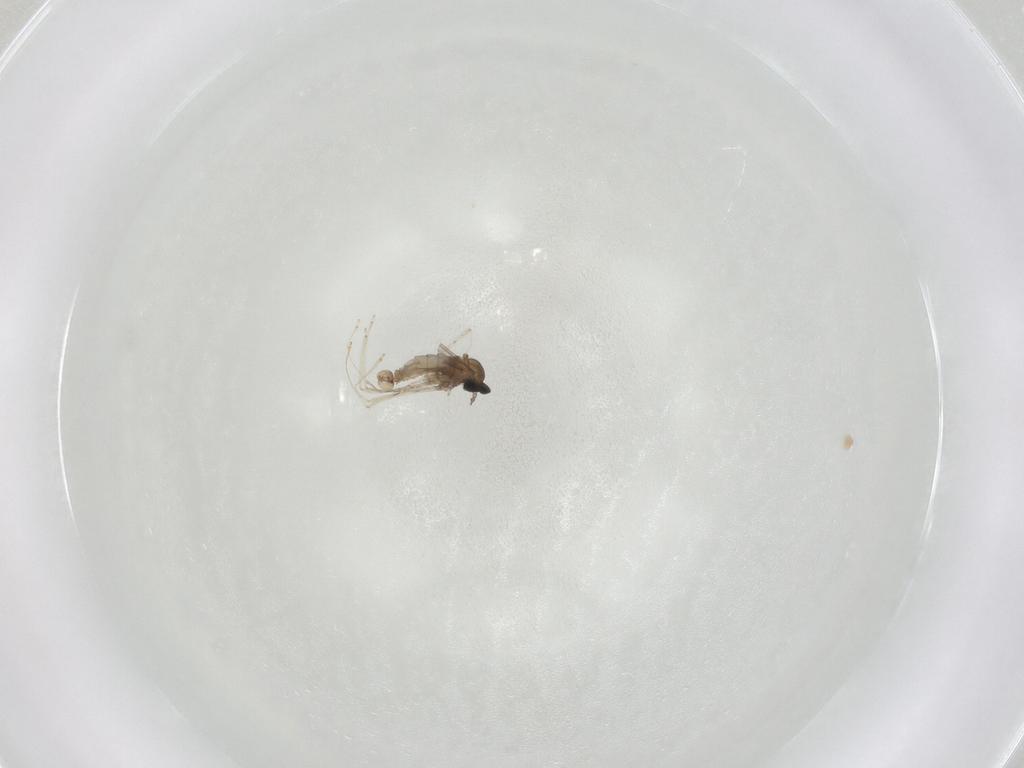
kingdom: Animalia
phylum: Arthropoda
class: Insecta
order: Diptera
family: Cecidomyiidae
